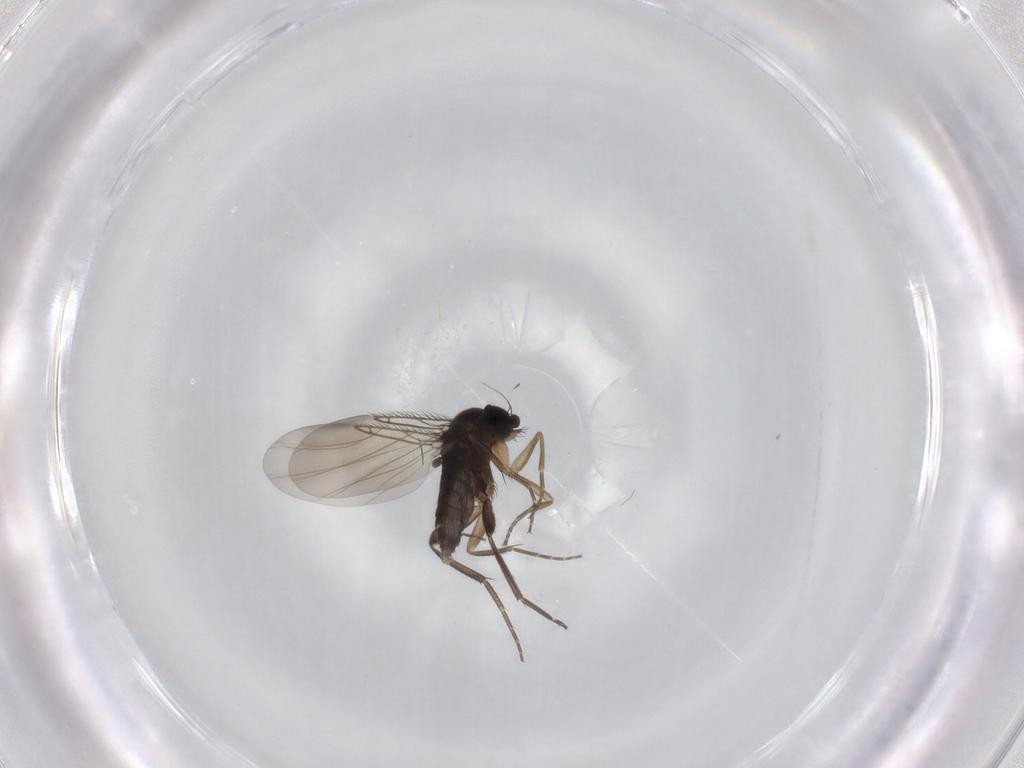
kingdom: Animalia
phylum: Arthropoda
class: Insecta
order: Diptera
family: Phoridae
